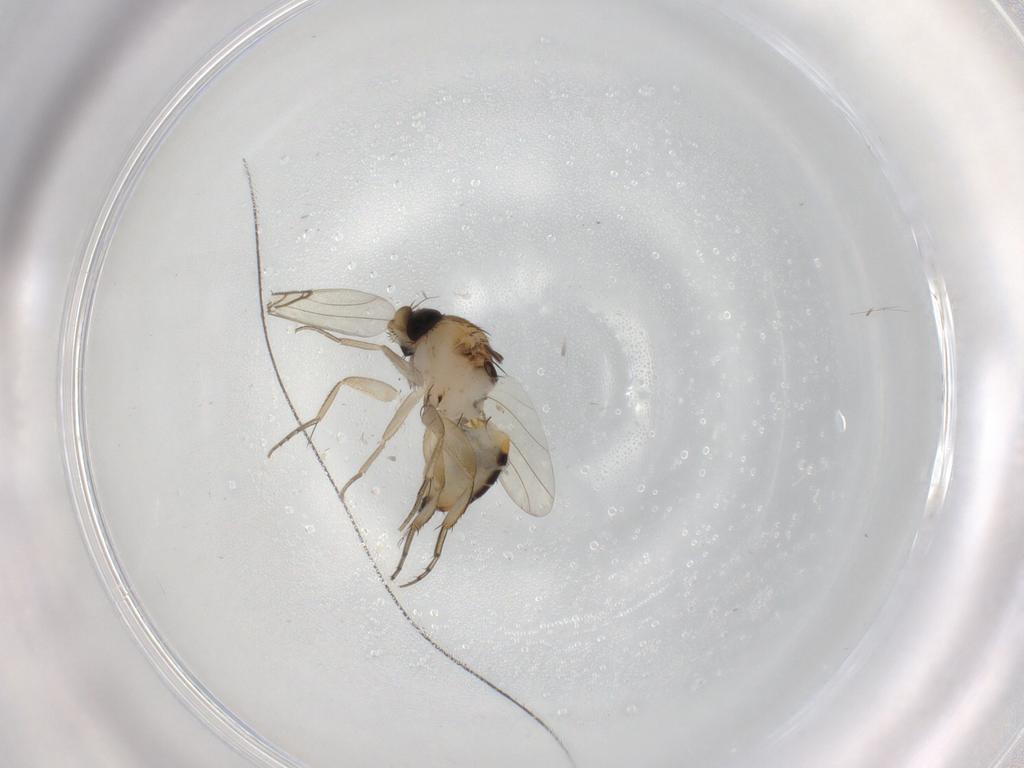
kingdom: Animalia
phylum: Arthropoda
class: Insecta
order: Diptera
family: Phoridae
